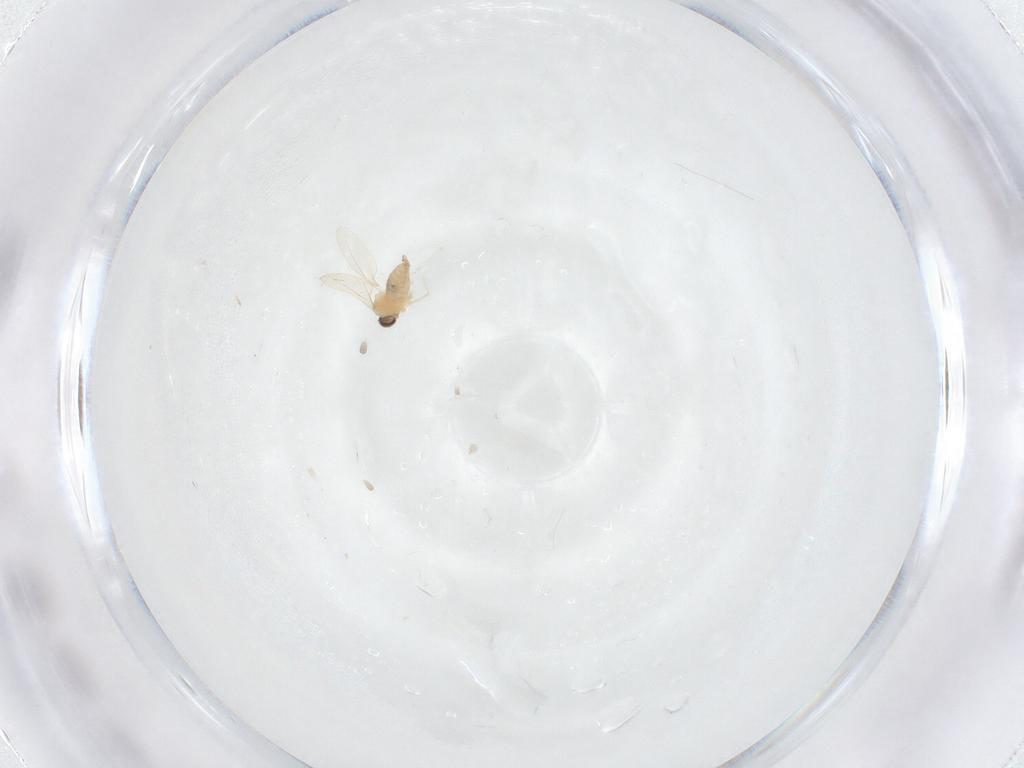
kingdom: Animalia
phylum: Arthropoda
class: Insecta
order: Diptera
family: Cecidomyiidae
